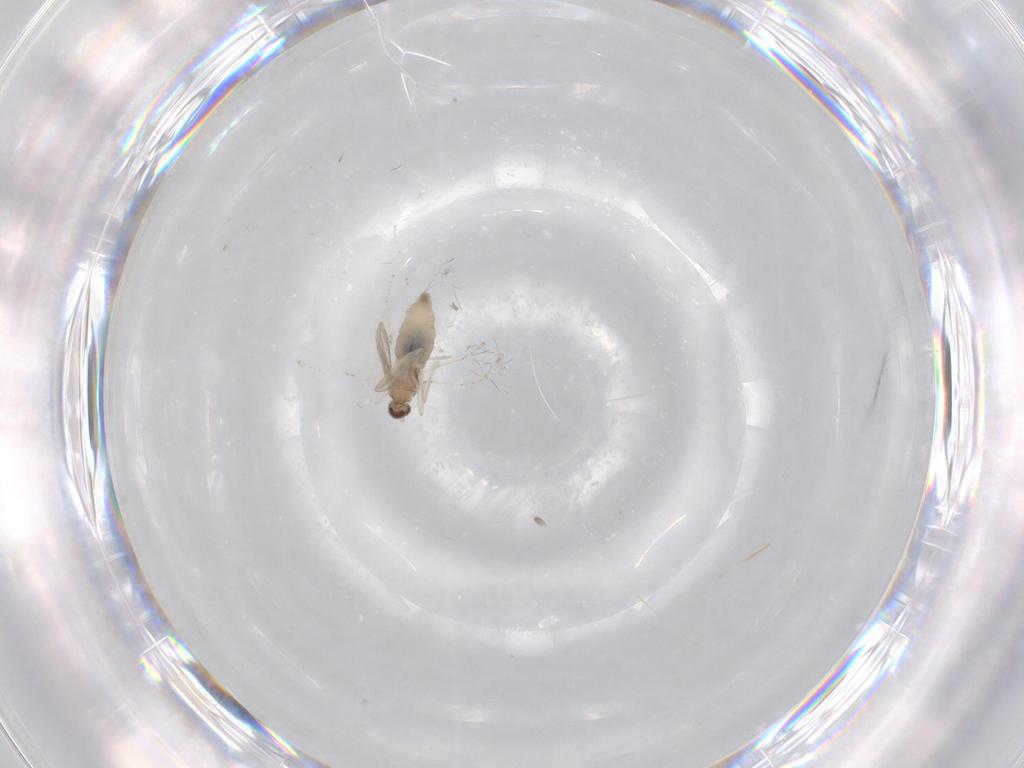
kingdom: Animalia
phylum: Arthropoda
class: Insecta
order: Diptera
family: Cecidomyiidae
